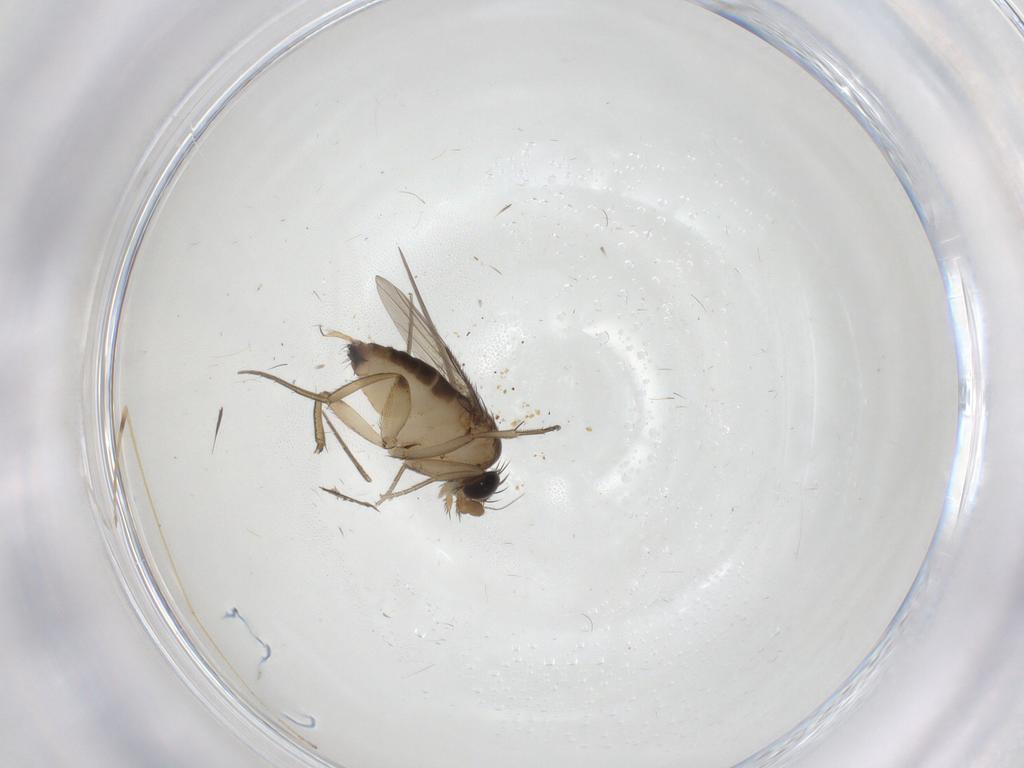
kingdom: Animalia
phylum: Arthropoda
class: Insecta
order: Diptera
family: Phoridae
